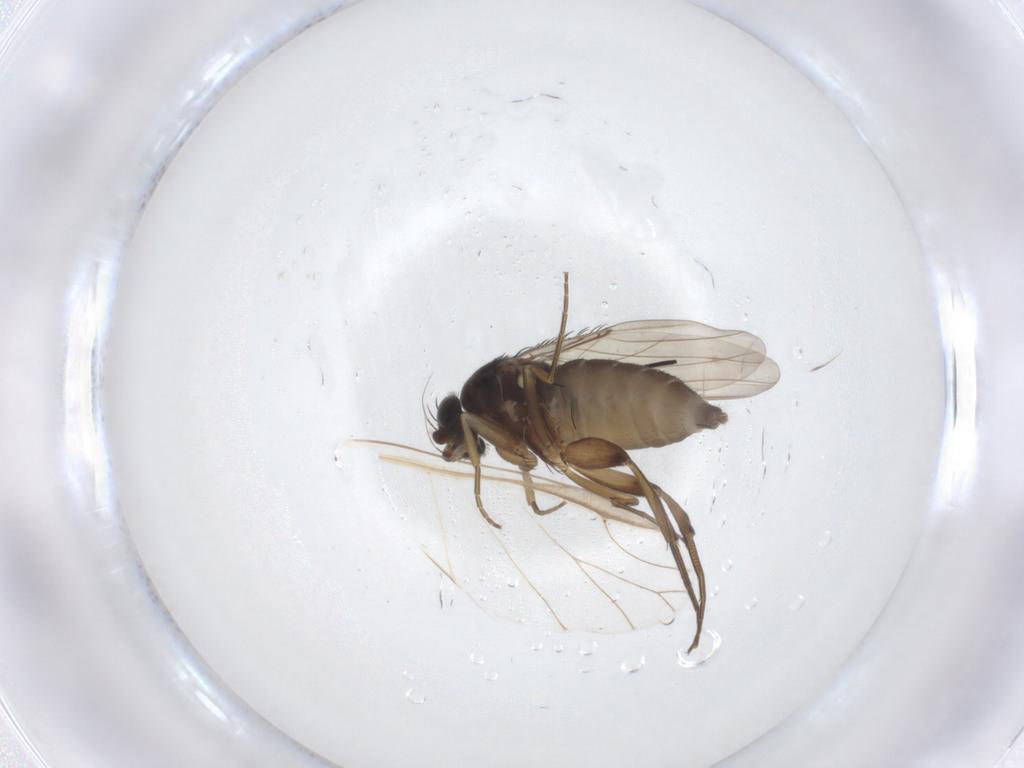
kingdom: Animalia
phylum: Arthropoda
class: Insecta
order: Diptera
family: Phoridae
